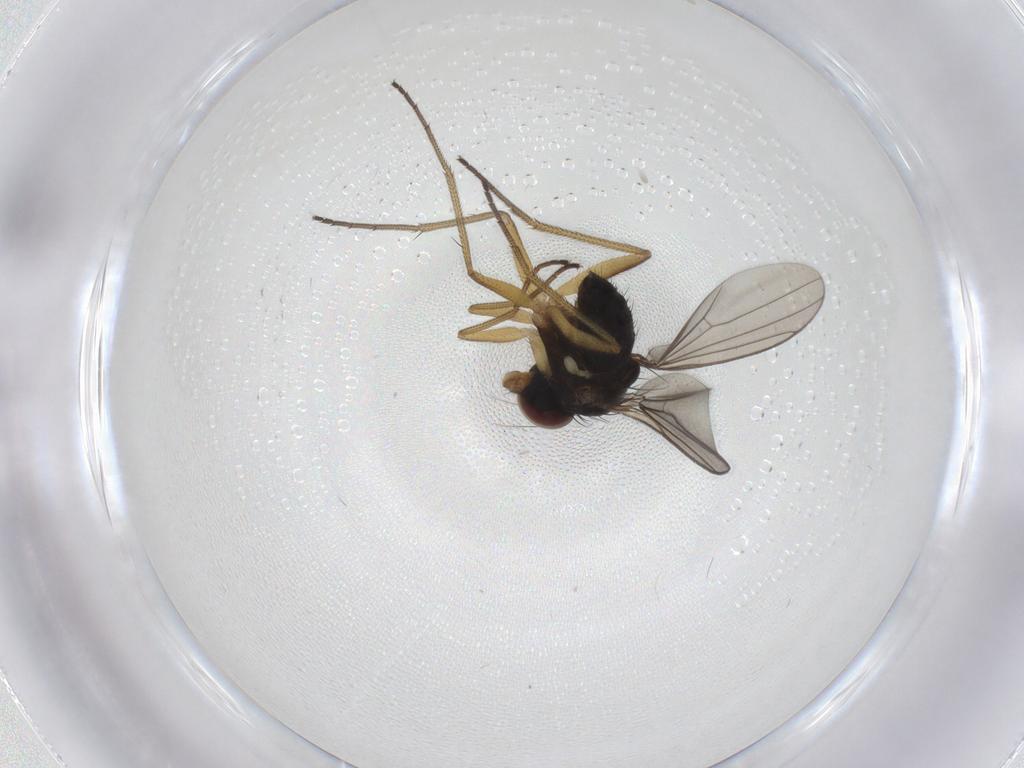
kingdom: Animalia
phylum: Arthropoda
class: Insecta
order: Diptera
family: Dolichopodidae
